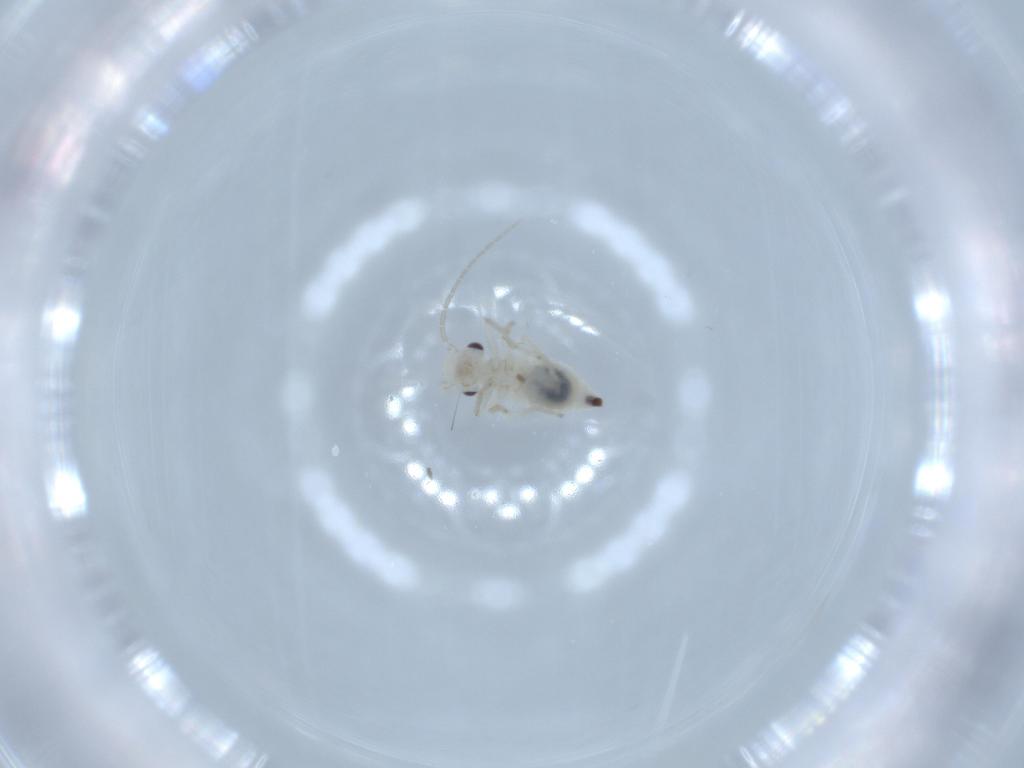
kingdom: Animalia
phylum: Arthropoda
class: Insecta
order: Psocodea
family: Caeciliusidae
